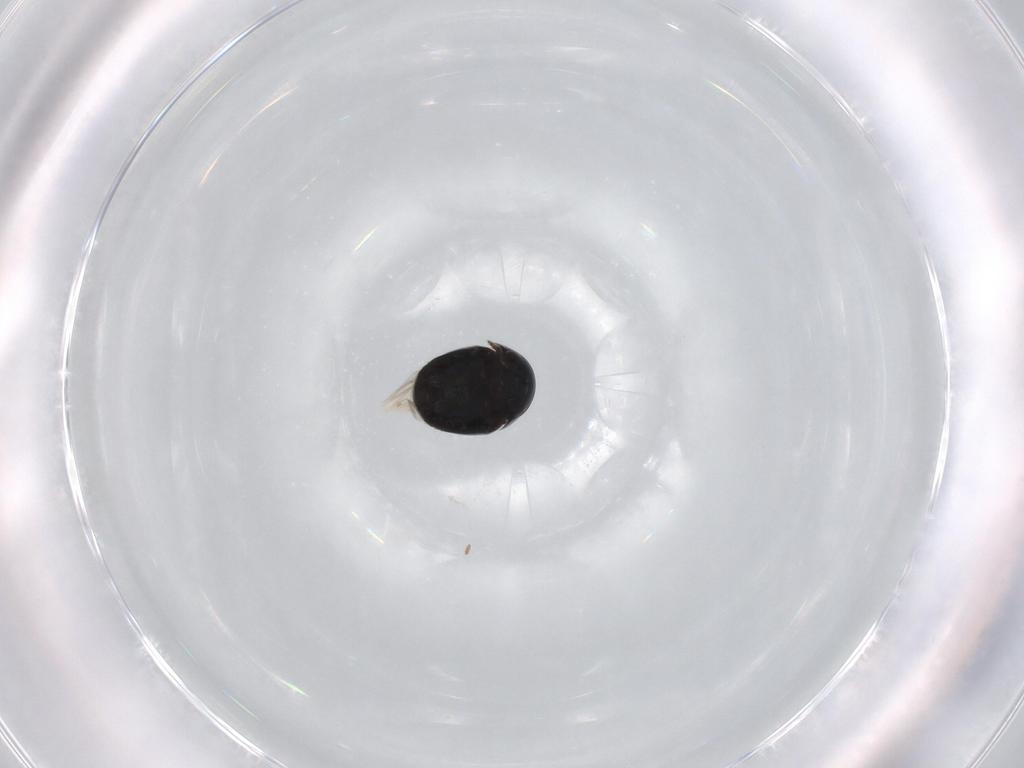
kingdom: Animalia
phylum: Arthropoda
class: Insecta
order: Coleoptera
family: Cybocephalidae
